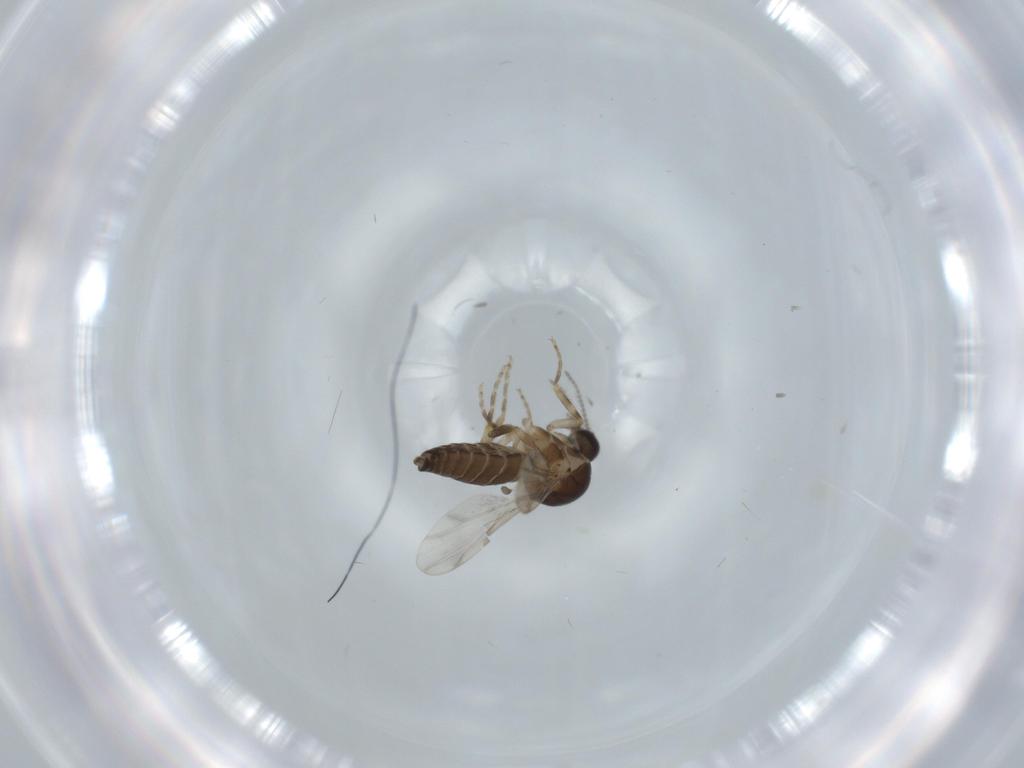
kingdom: Animalia
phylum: Arthropoda
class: Insecta
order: Diptera
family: Ceratopogonidae
